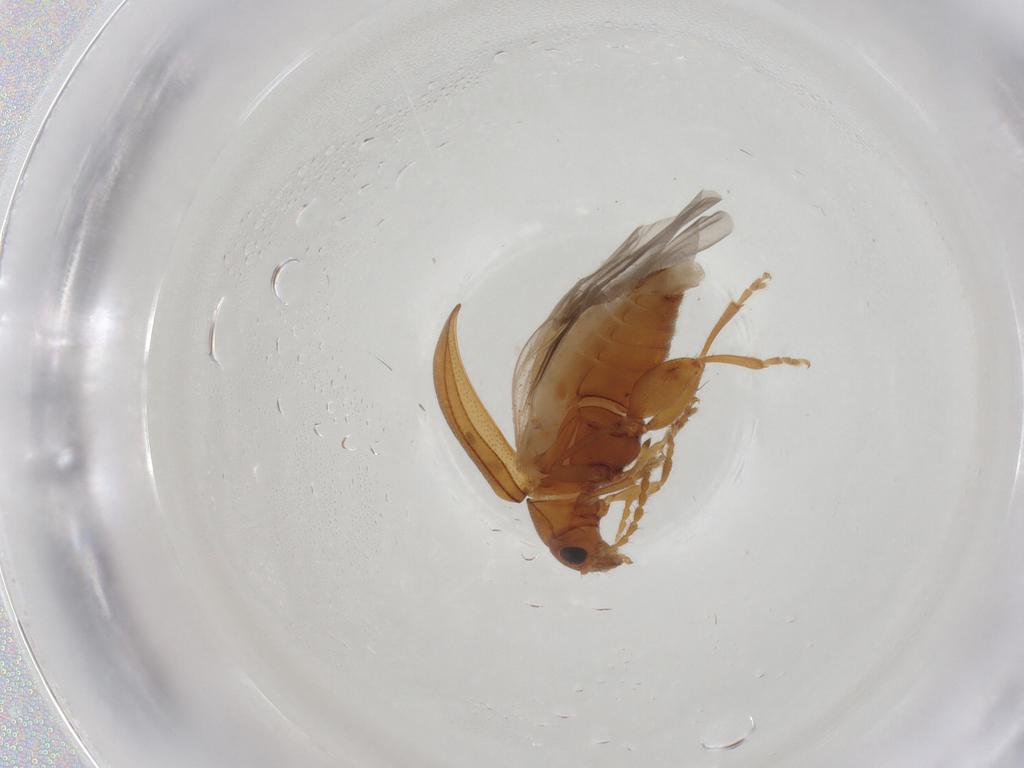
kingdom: Animalia
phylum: Arthropoda
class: Insecta
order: Coleoptera
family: Chrysomelidae
